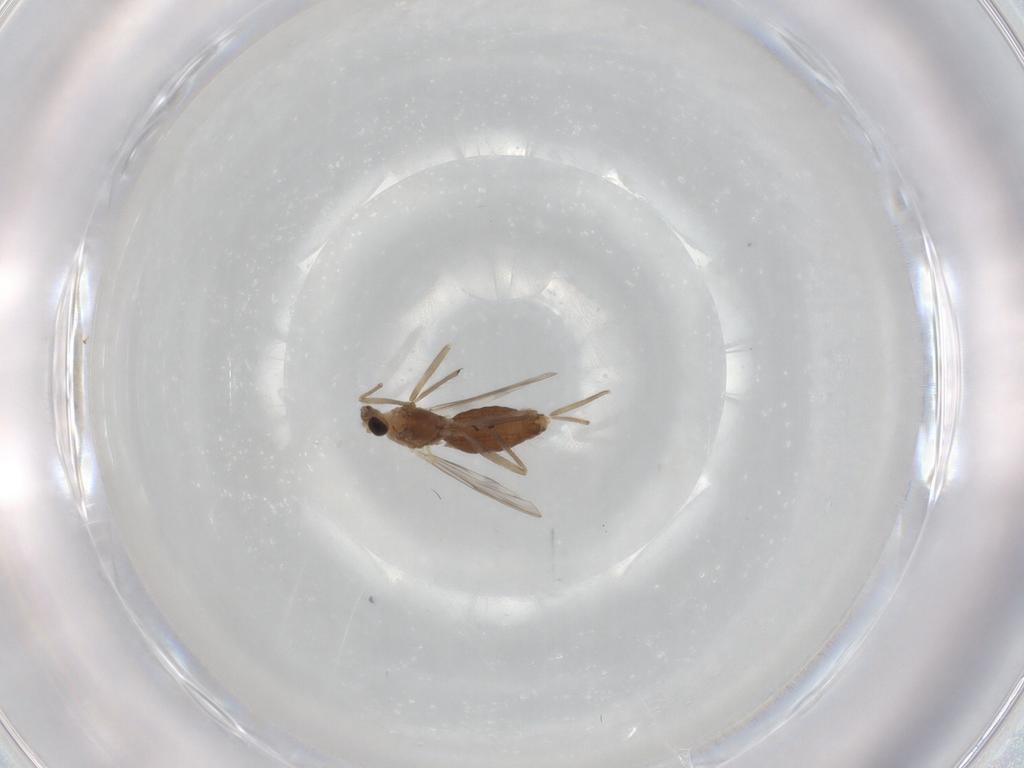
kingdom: Animalia
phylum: Arthropoda
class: Insecta
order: Diptera
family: Chironomidae
